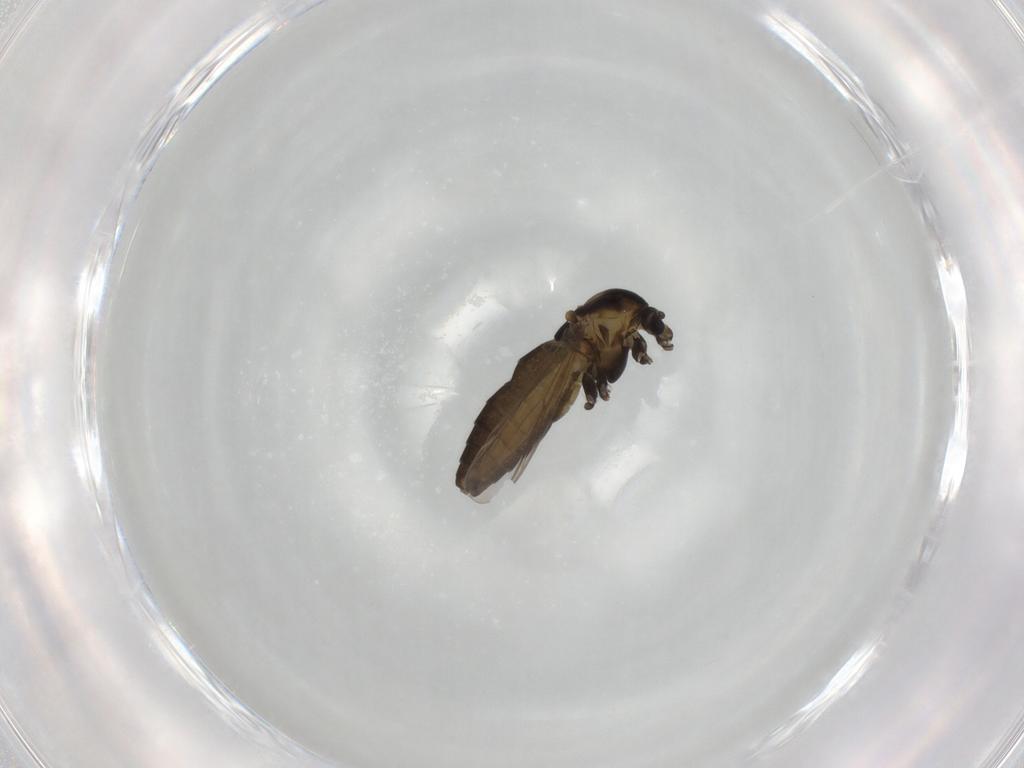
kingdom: Animalia
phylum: Arthropoda
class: Insecta
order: Diptera
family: Chironomidae
